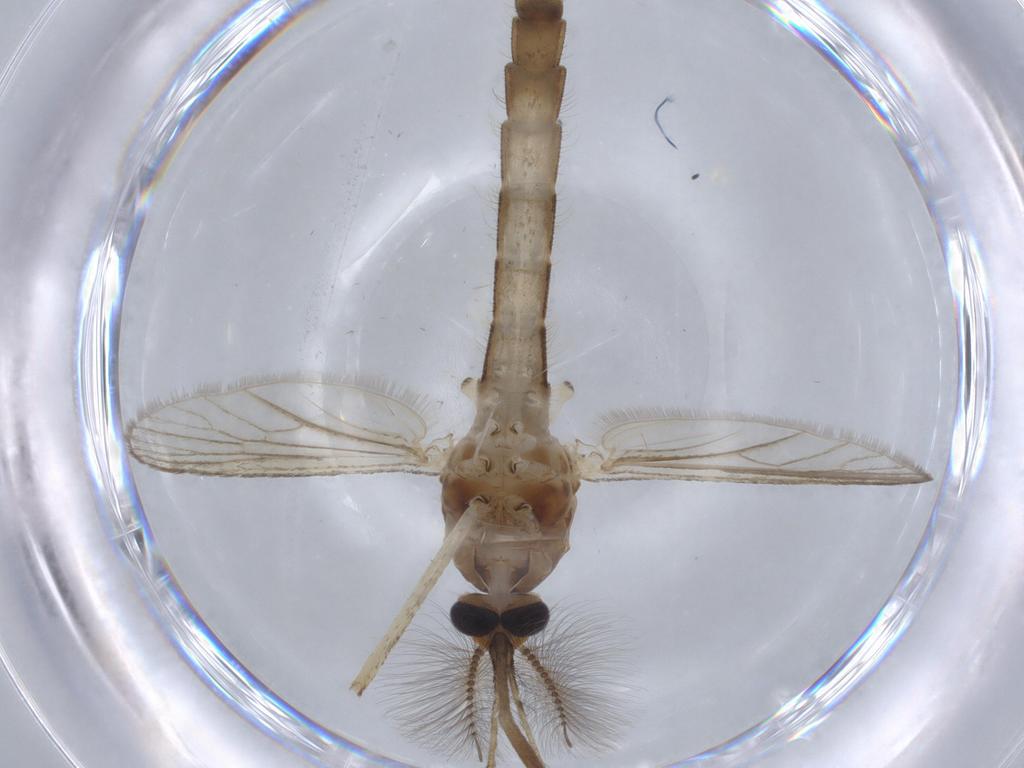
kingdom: Animalia
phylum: Arthropoda
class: Insecta
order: Diptera
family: Culicidae
